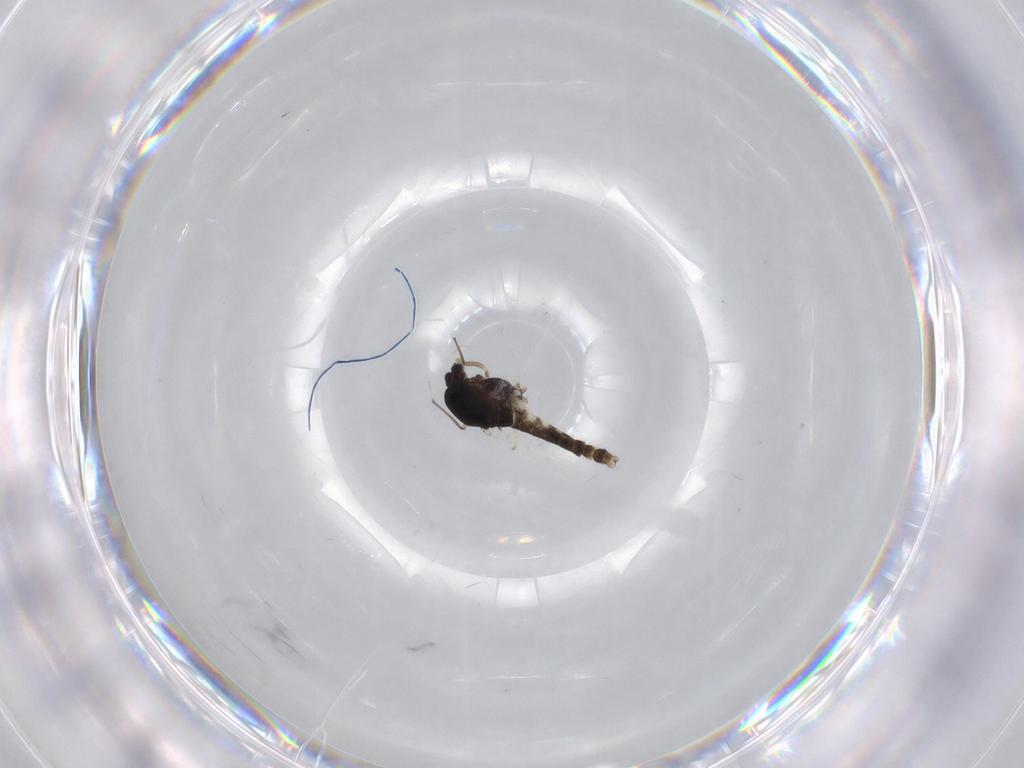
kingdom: Animalia
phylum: Arthropoda
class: Insecta
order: Diptera
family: Chironomidae
